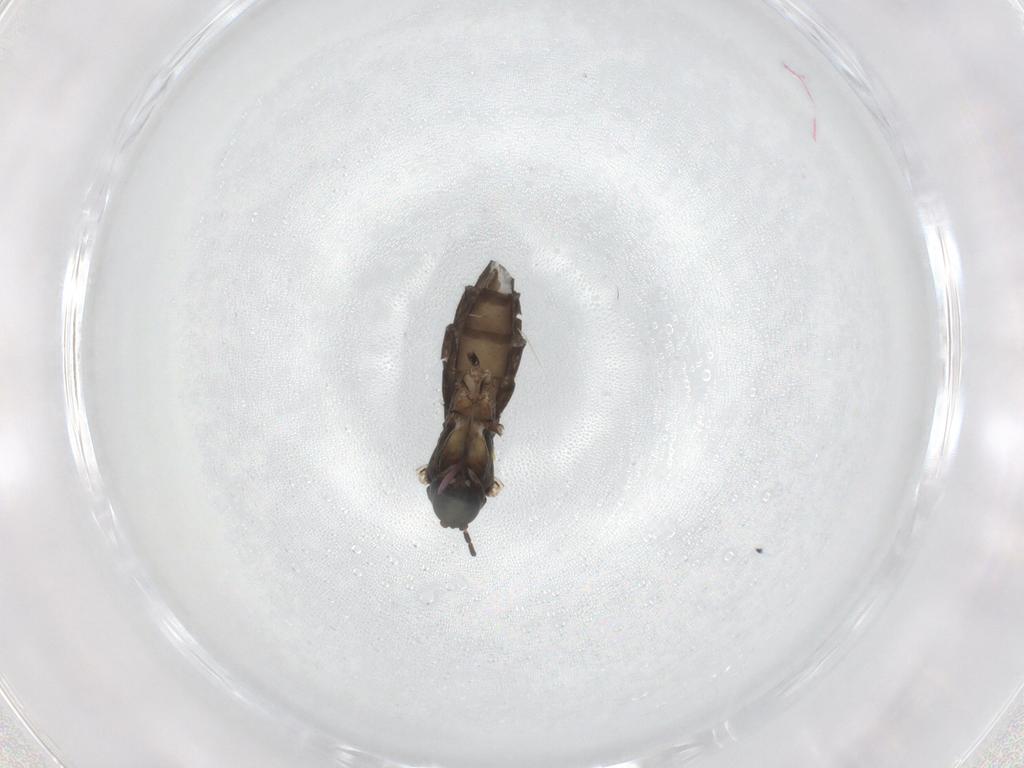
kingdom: Animalia
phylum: Arthropoda
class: Insecta
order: Diptera
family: Sciaridae
